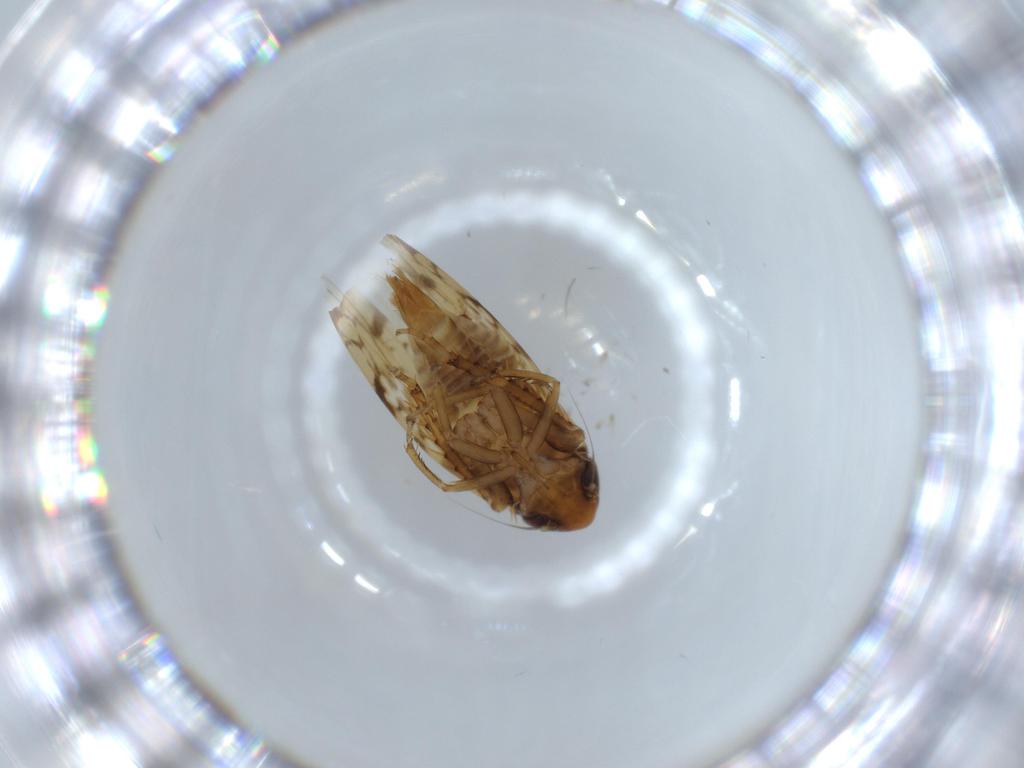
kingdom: Animalia
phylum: Arthropoda
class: Insecta
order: Hemiptera
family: Cicadellidae
